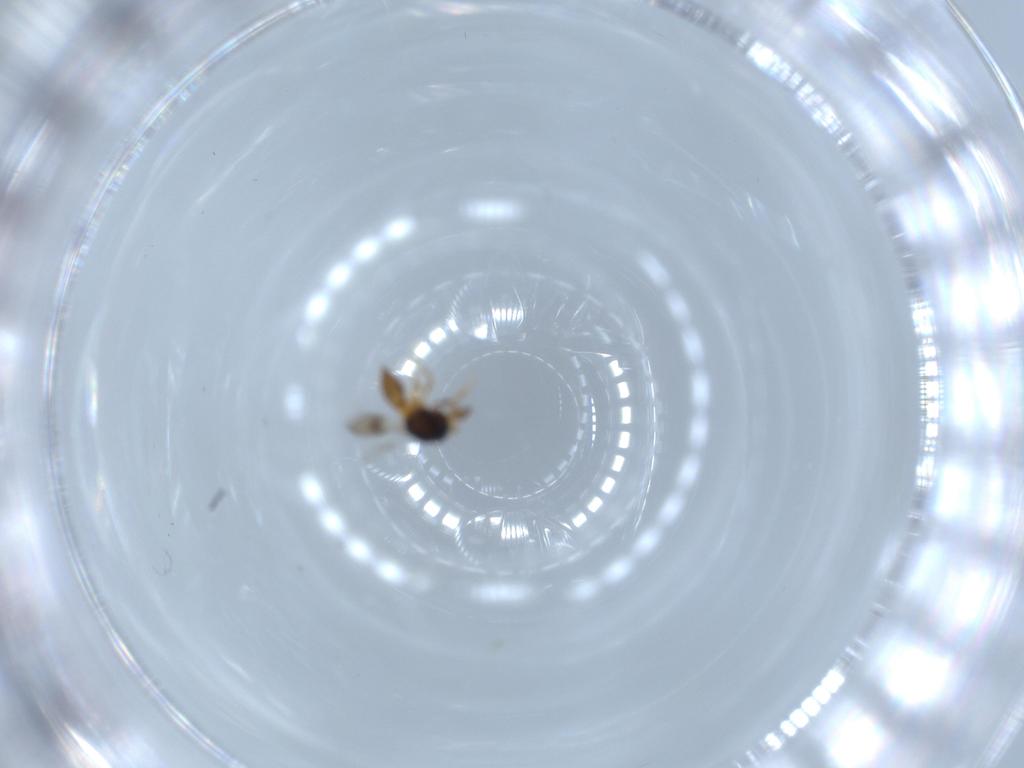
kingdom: Animalia
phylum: Arthropoda
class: Insecta
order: Hymenoptera
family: Scelionidae
